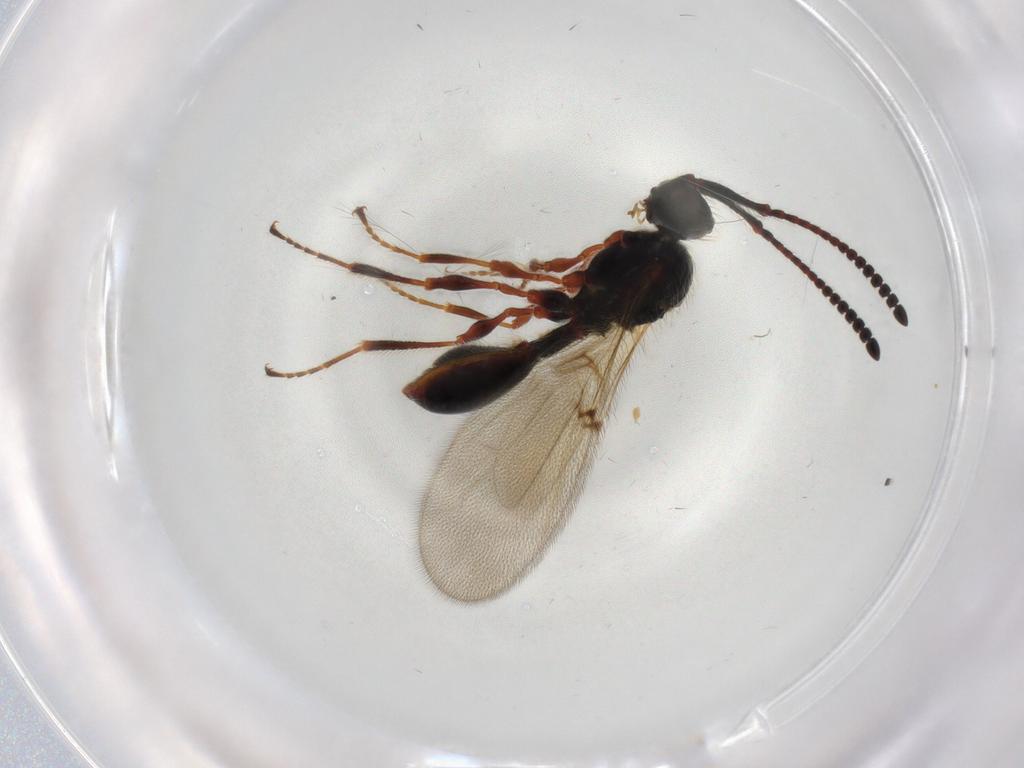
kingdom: Animalia
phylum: Arthropoda
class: Insecta
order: Hymenoptera
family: Diapriidae
